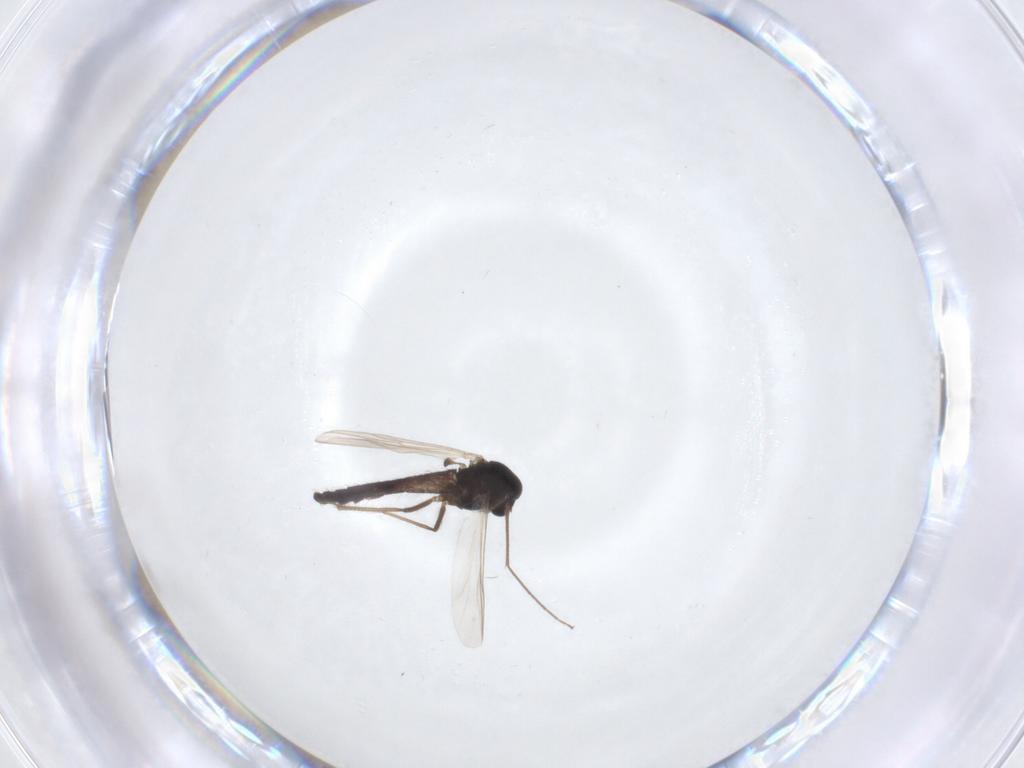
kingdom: Animalia
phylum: Arthropoda
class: Insecta
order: Diptera
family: Chironomidae
